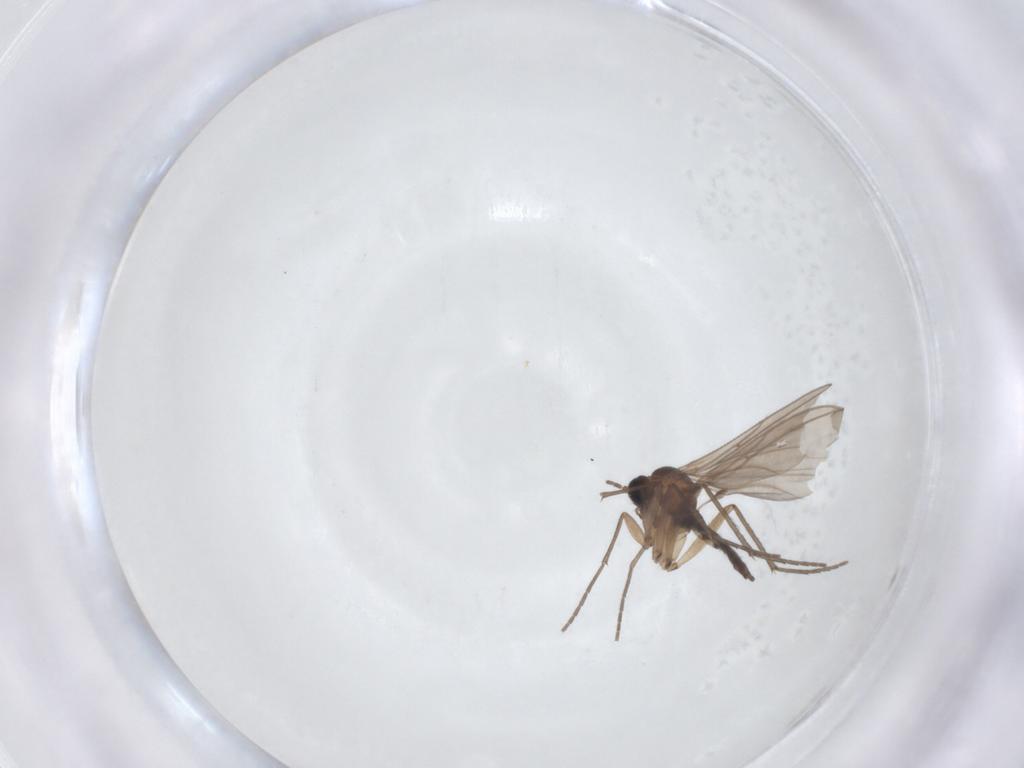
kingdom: Animalia
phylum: Arthropoda
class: Insecta
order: Diptera
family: Sciaridae
